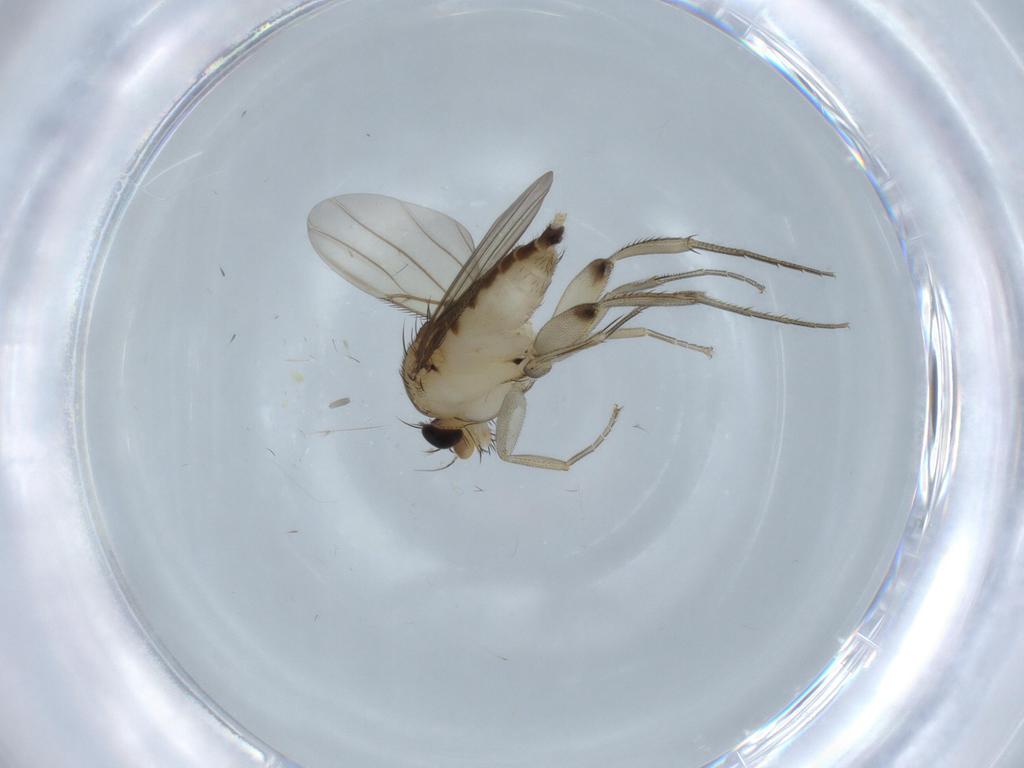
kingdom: Animalia
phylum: Arthropoda
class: Insecta
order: Diptera
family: Phoridae
